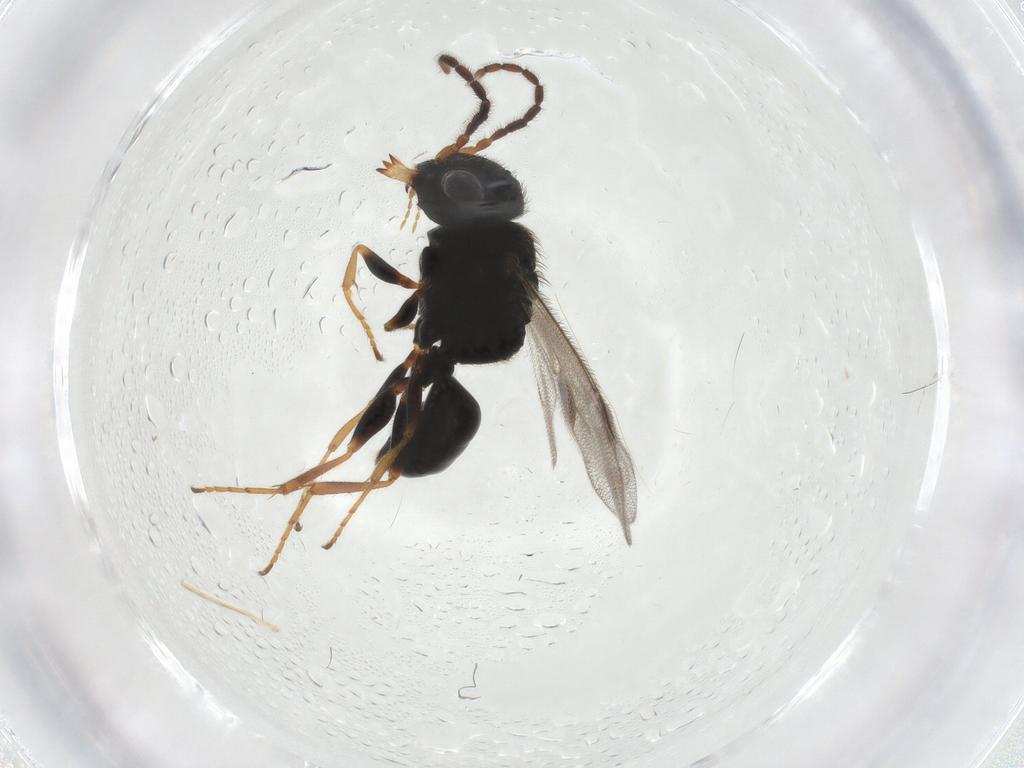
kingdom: Animalia
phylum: Arthropoda
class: Insecta
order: Hymenoptera
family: Dryinidae
